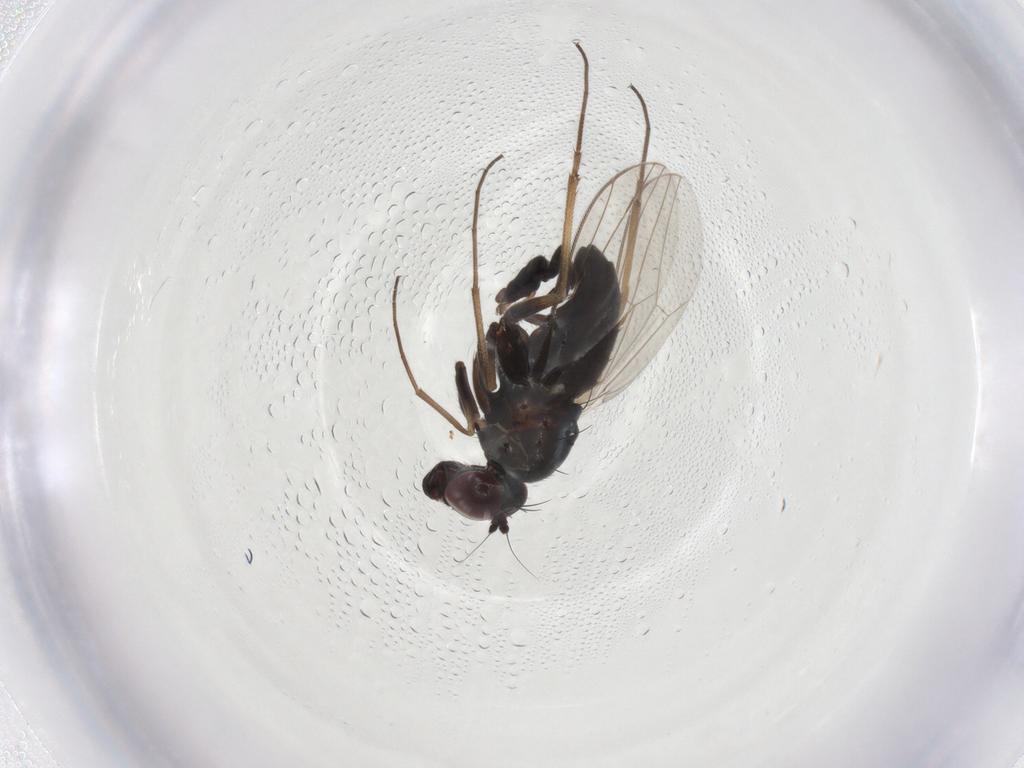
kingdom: Animalia
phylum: Arthropoda
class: Insecta
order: Diptera
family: Dolichopodidae
